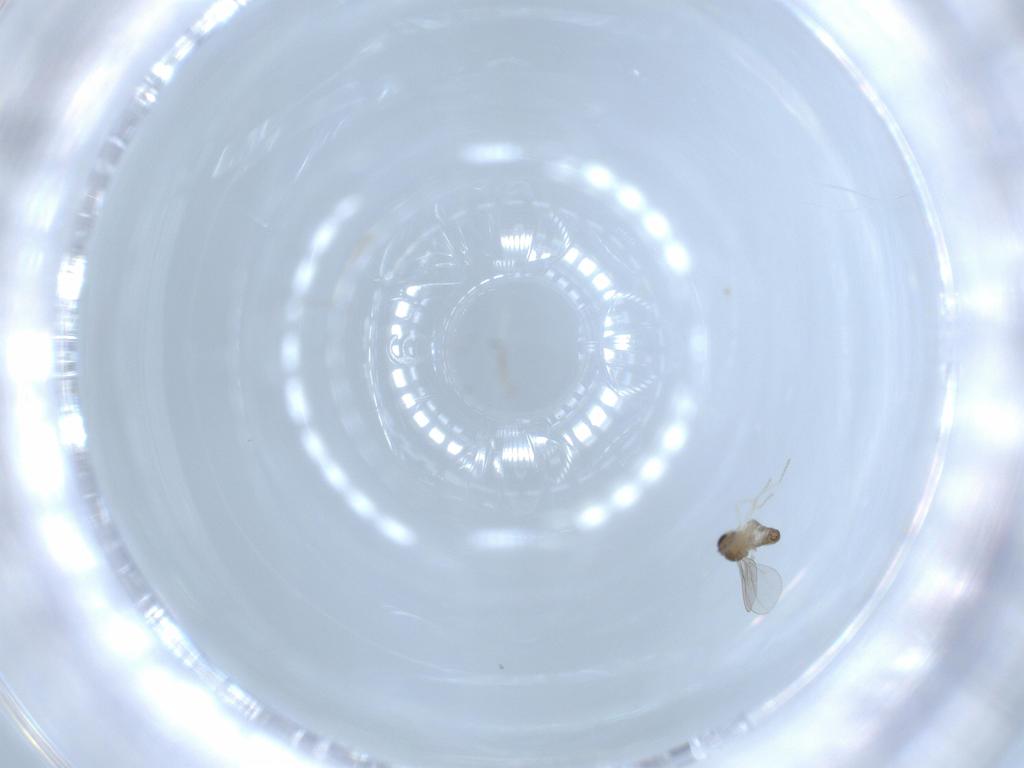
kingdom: Animalia
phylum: Arthropoda
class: Insecta
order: Diptera
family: Cecidomyiidae
